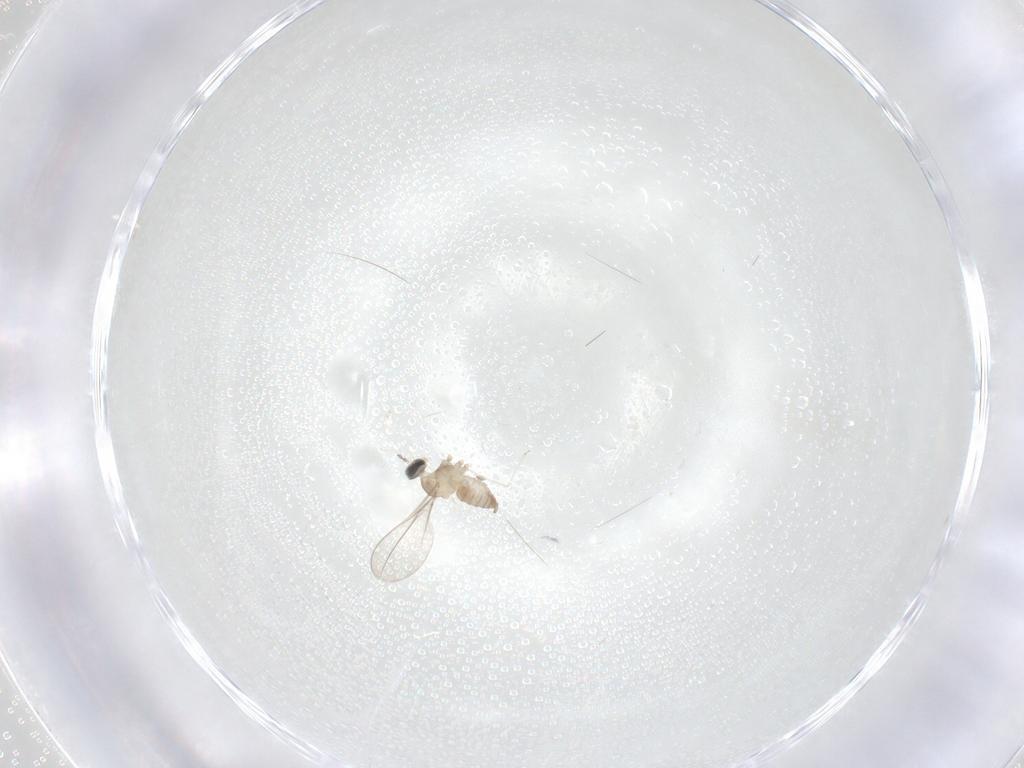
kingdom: Animalia
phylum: Arthropoda
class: Insecta
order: Diptera
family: Cecidomyiidae
